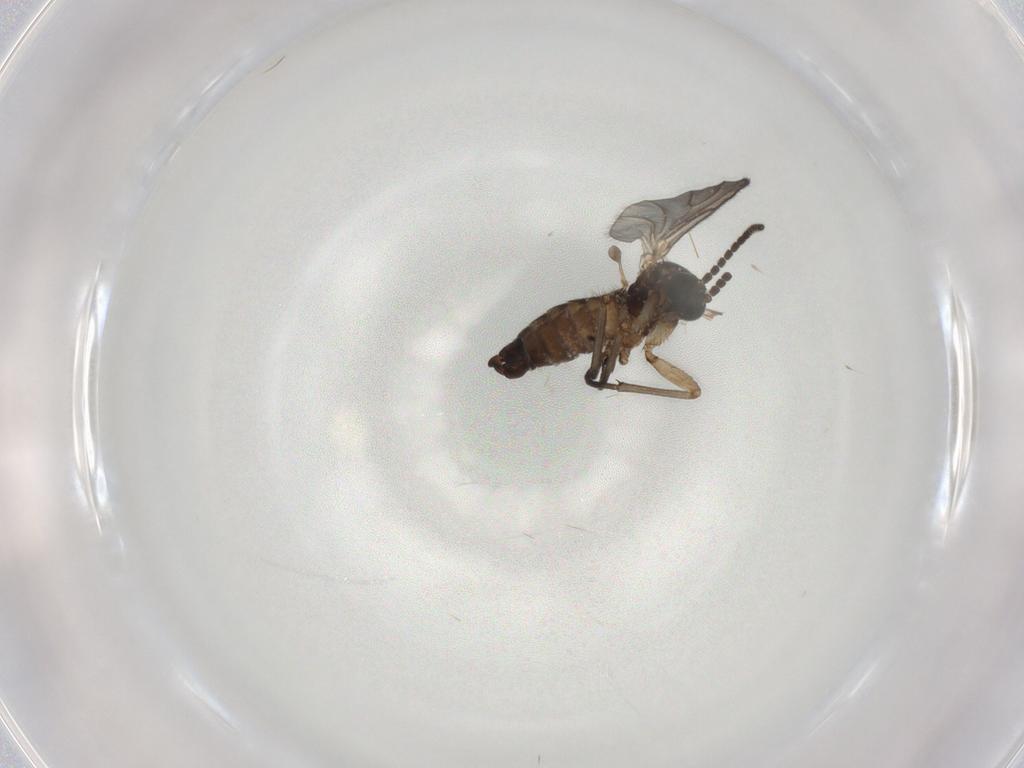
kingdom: Animalia
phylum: Arthropoda
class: Insecta
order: Diptera
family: Sciaridae
